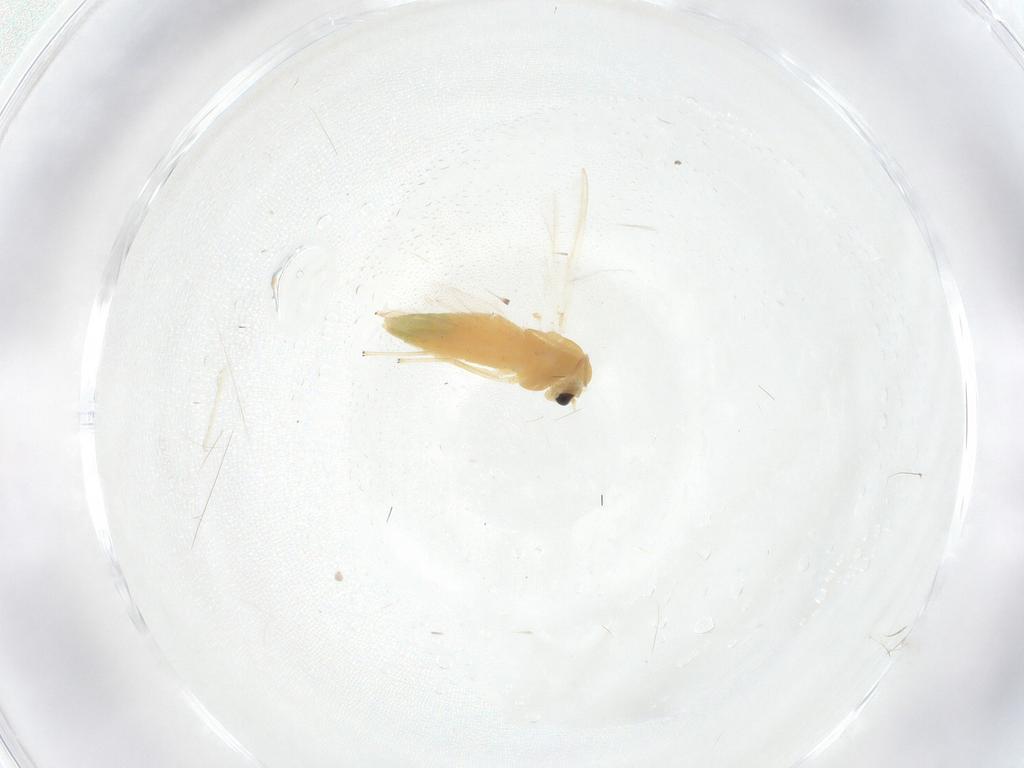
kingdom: Animalia
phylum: Arthropoda
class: Insecta
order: Diptera
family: Chironomidae
